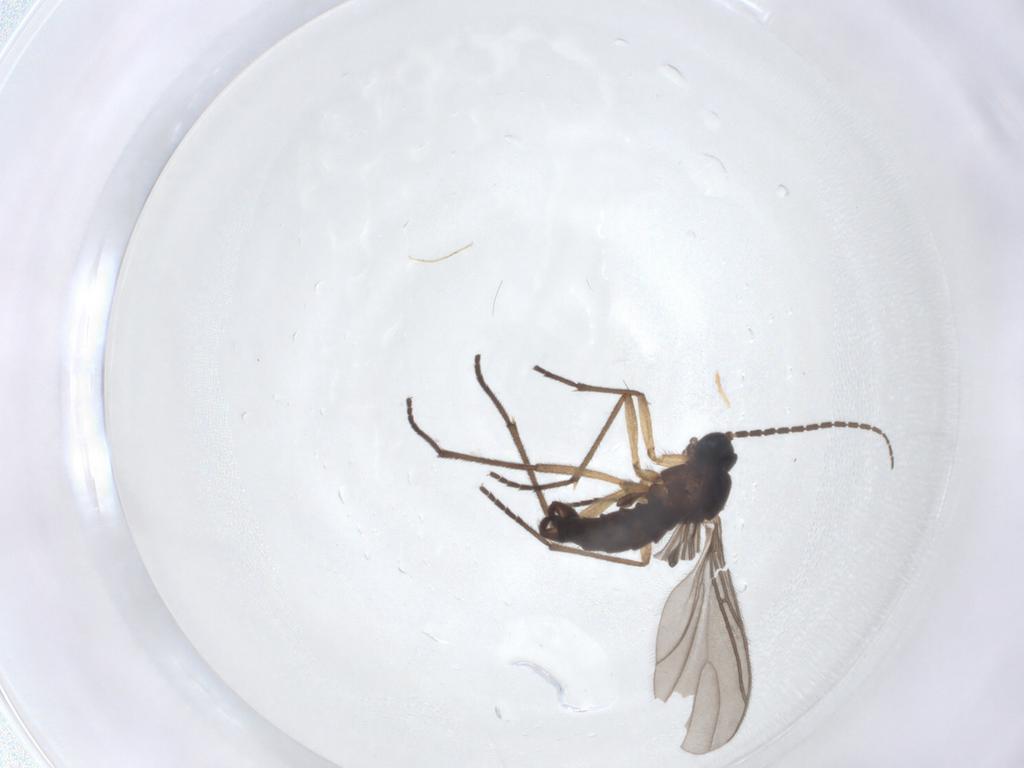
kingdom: Animalia
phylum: Arthropoda
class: Insecta
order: Diptera
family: Sciaridae
